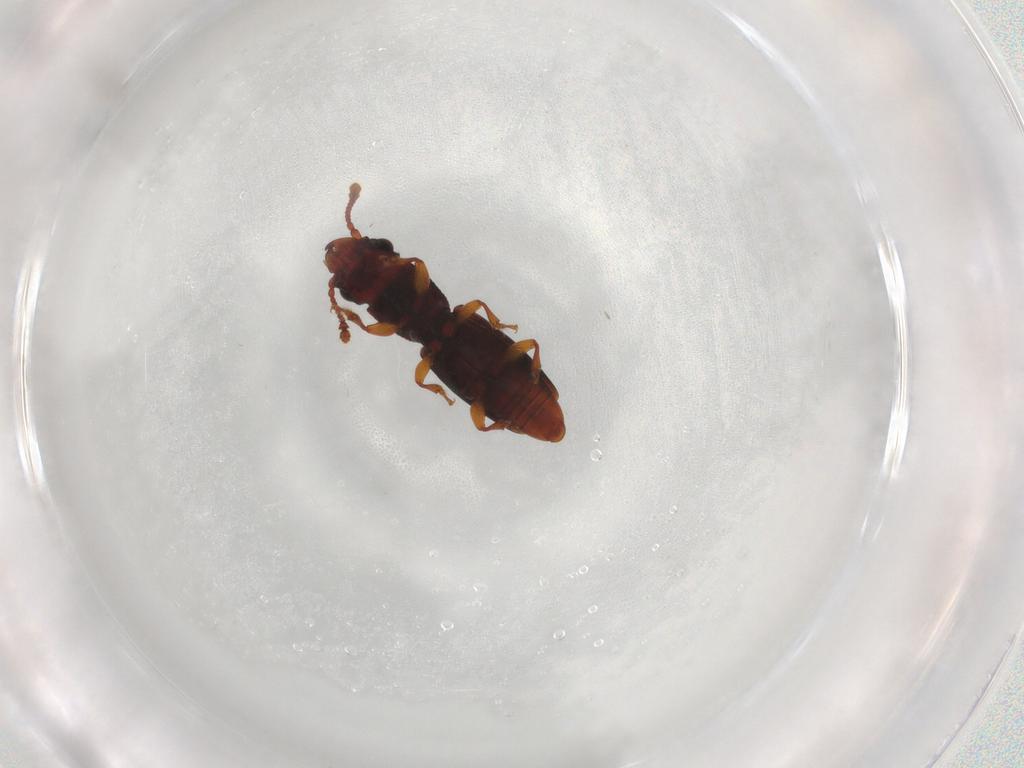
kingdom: Animalia
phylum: Arthropoda
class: Insecta
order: Coleoptera
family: Monotomidae
